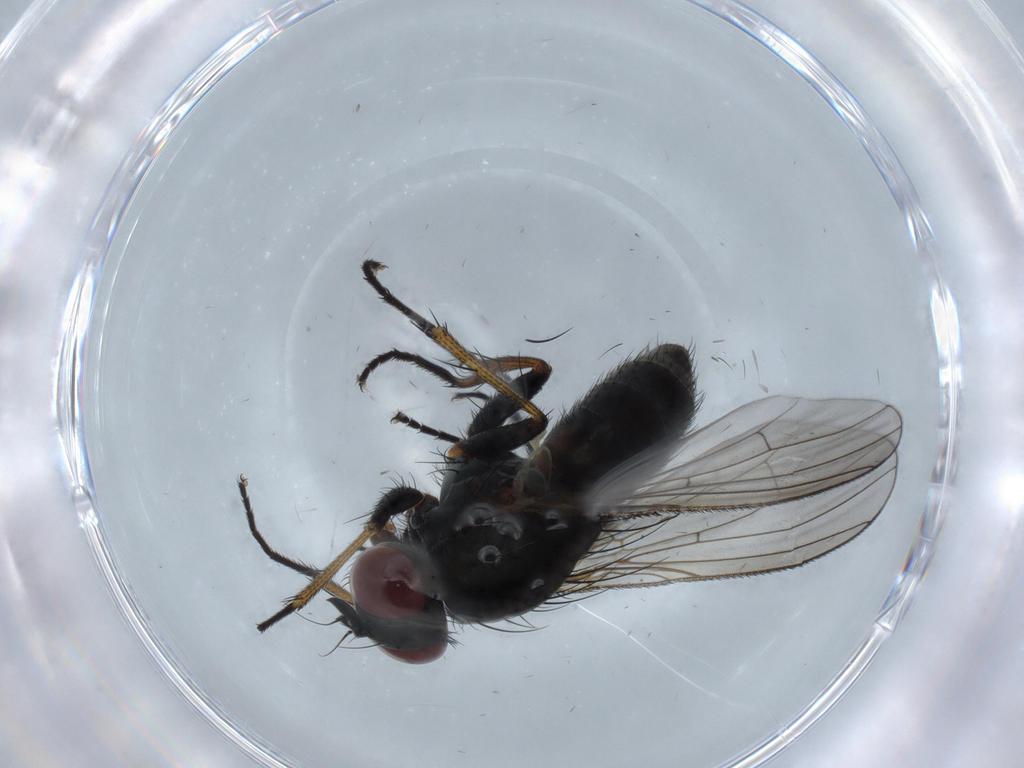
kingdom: Animalia
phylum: Arthropoda
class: Insecta
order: Diptera
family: Muscidae
